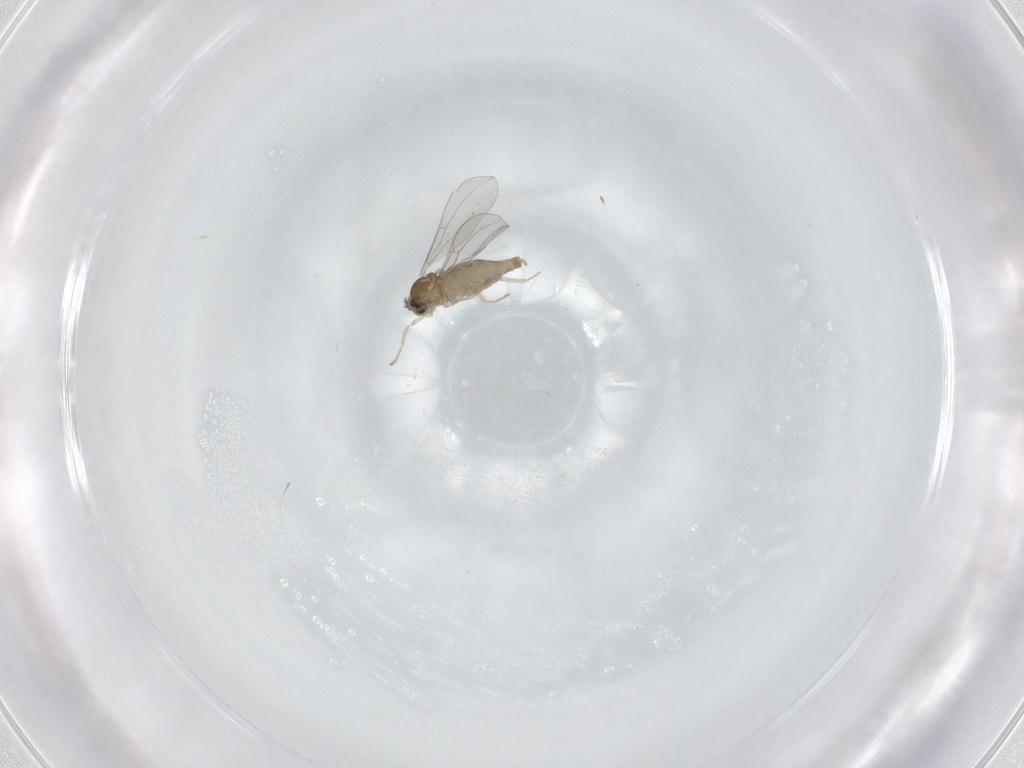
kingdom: Animalia
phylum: Arthropoda
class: Insecta
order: Diptera
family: Cecidomyiidae
